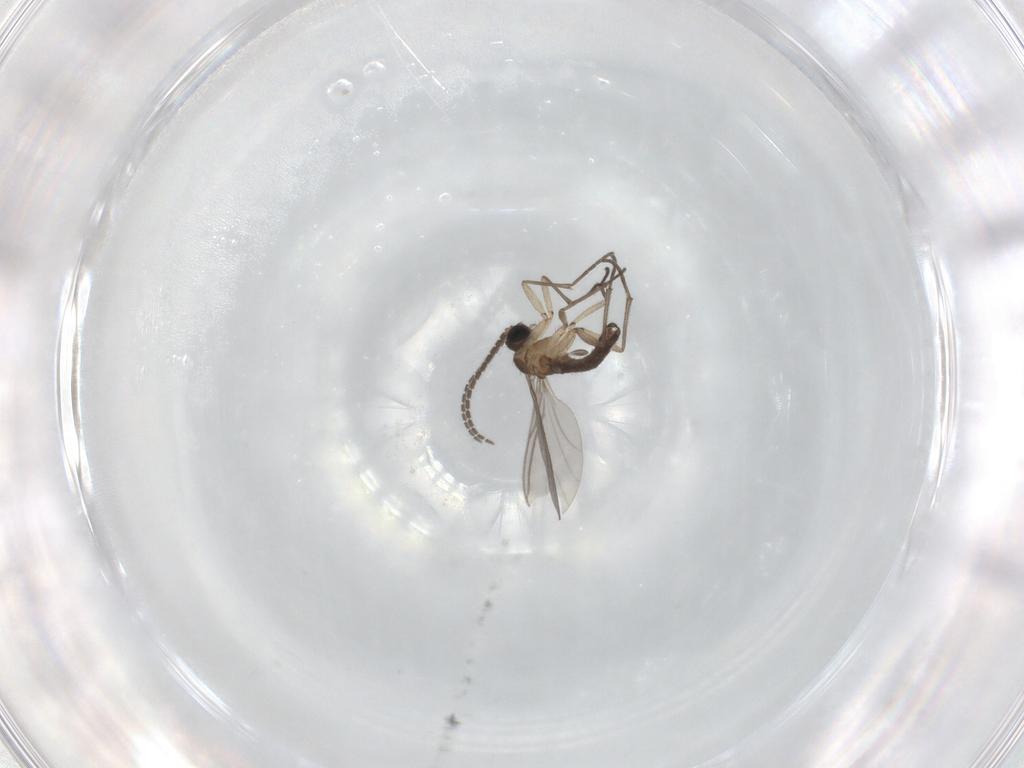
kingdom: Animalia
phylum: Arthropoda
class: Insecta
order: Diptera
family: Sciaridae
